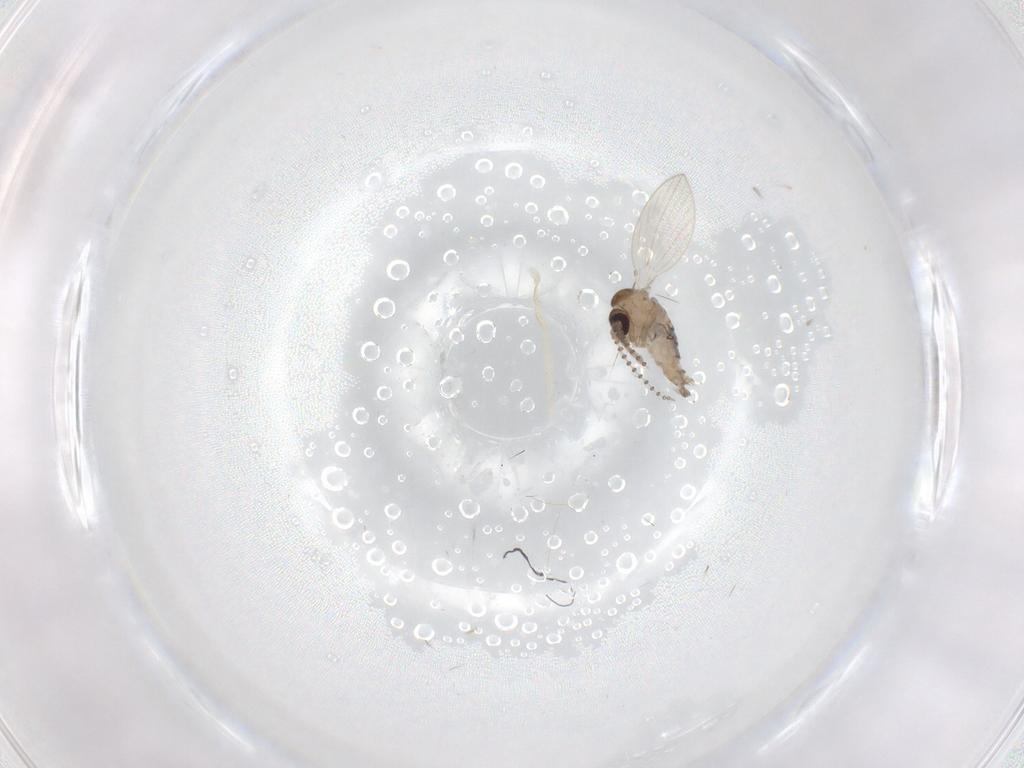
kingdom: Animalia
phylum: Arthropoda
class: Insecta
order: Diptera
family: Psychodidae
